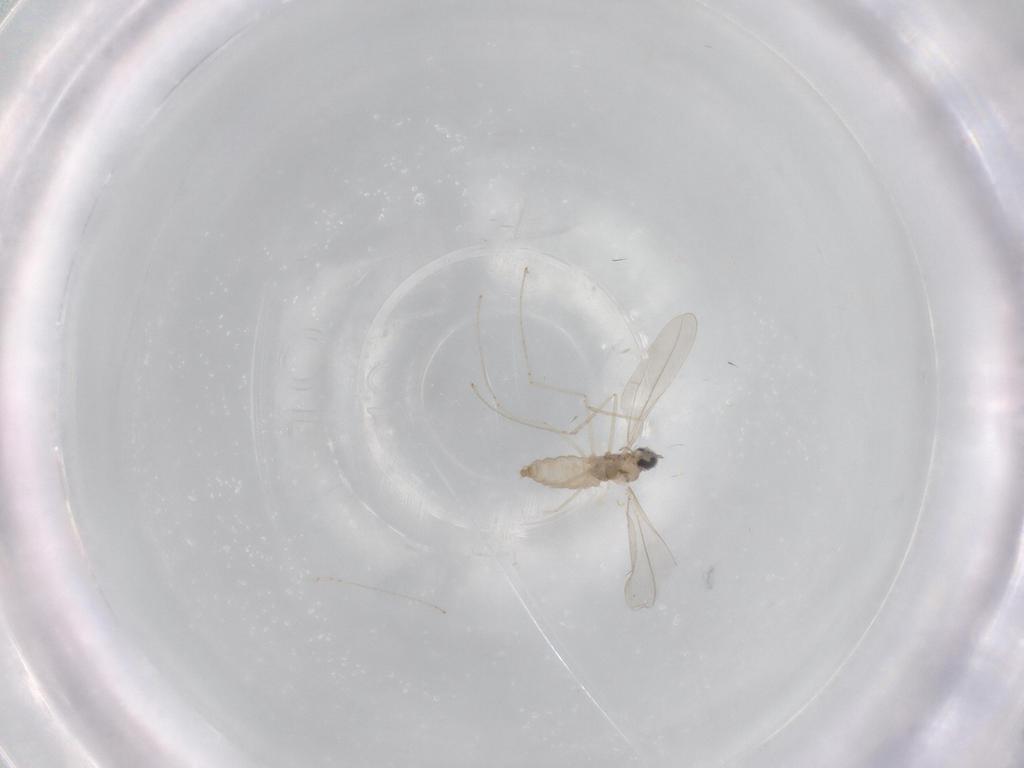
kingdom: Animalia
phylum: Arthropoda
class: Insecta
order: Diptera
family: Cecidomyiidae
